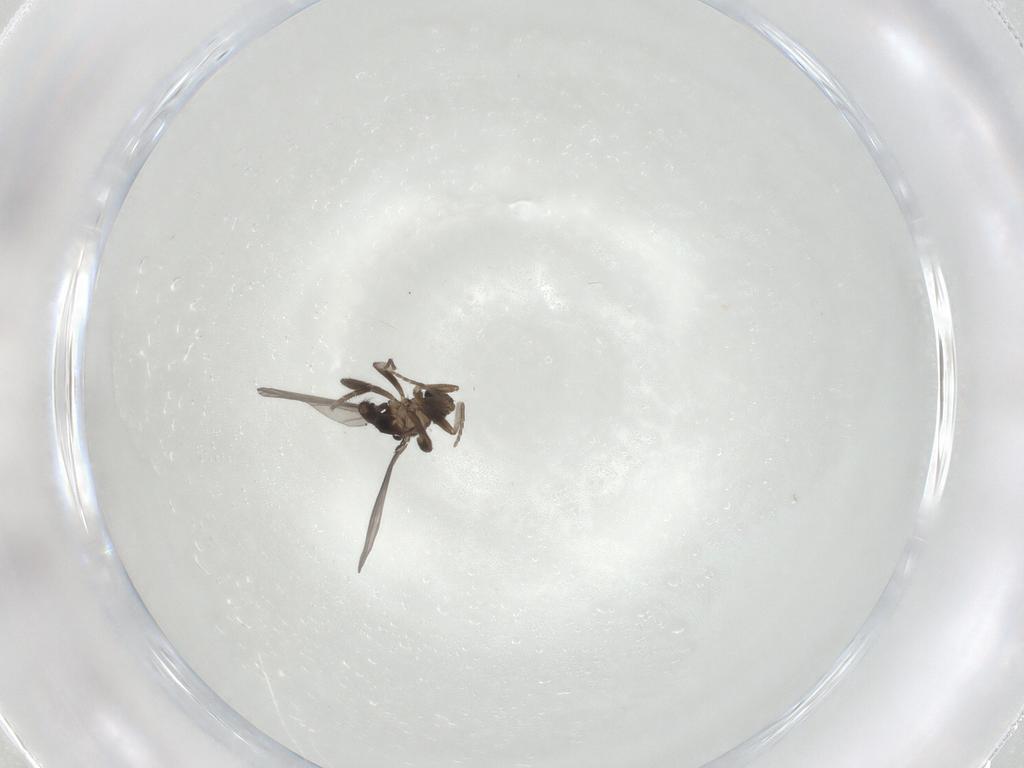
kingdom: Animalia
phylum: Arthropoda
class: Insecta
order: Diptera
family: Phoridae
